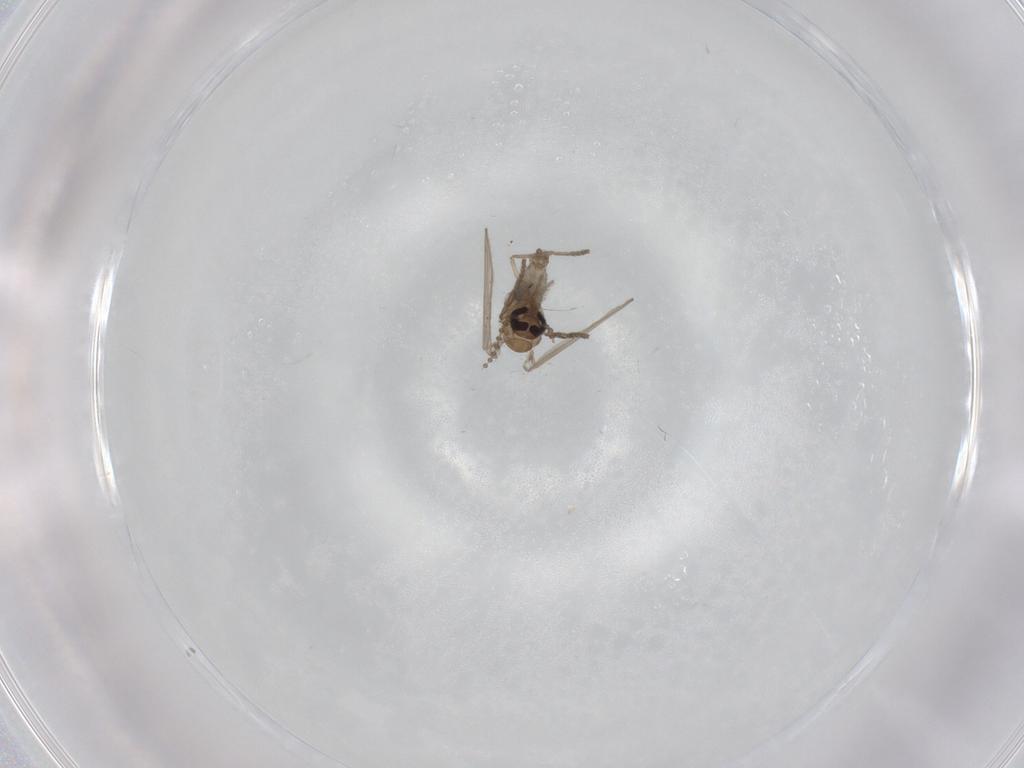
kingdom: Animalia
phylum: Arthropoda
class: Insecta
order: Diptera
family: Psychodidae
